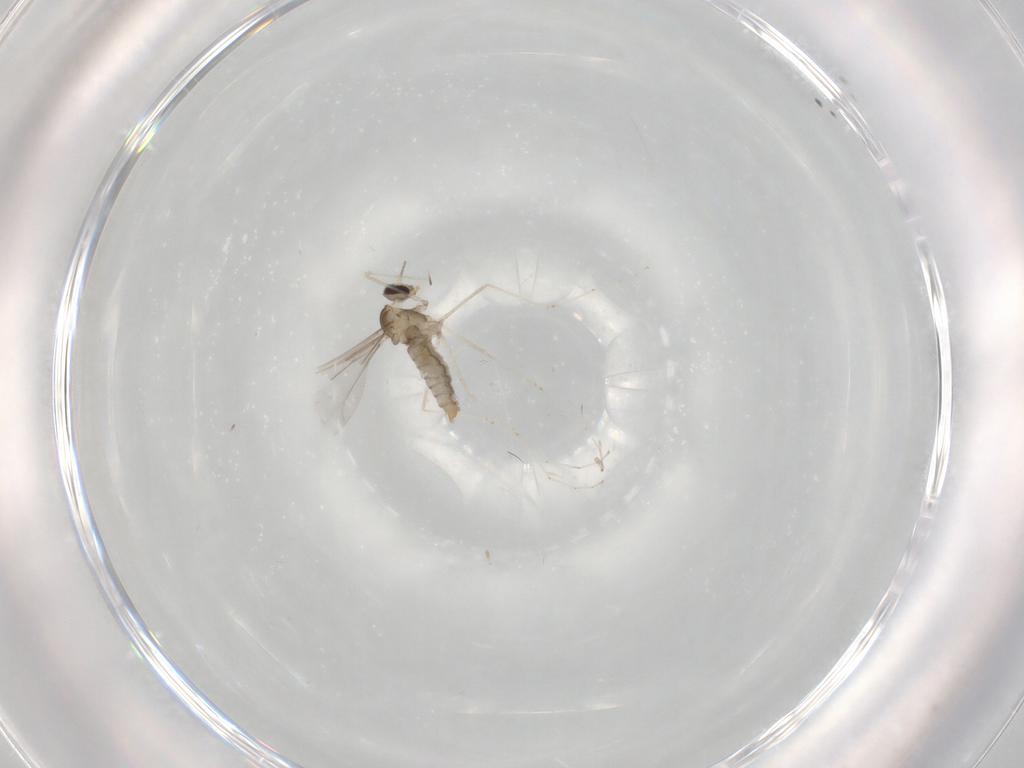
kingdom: Animalia
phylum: Arthropoda
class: Insecta
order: Diptera
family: Cecidomyiidae
